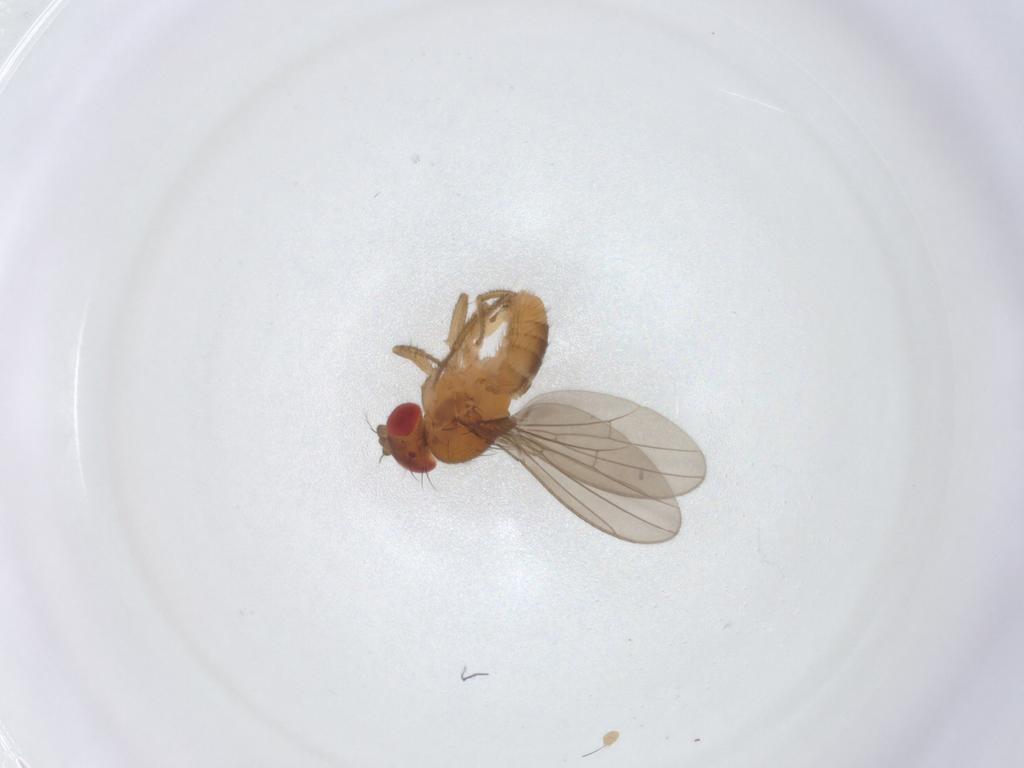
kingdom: Animalia
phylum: Arthropoda
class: Insecta
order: Diptera
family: Drosophilidae
